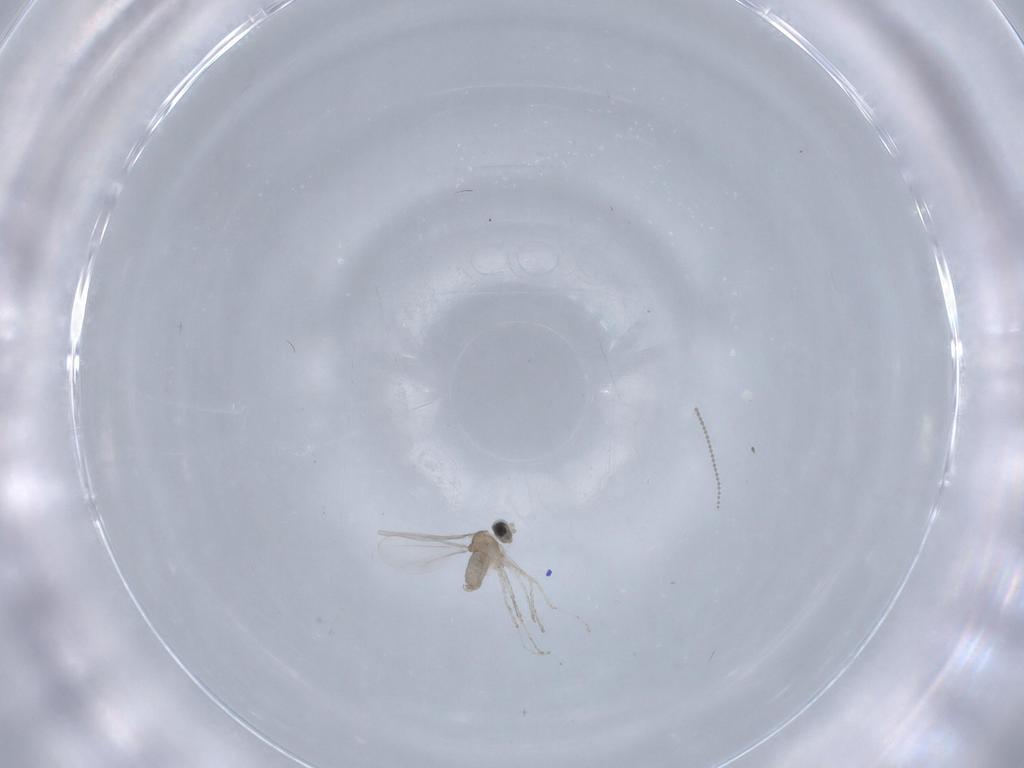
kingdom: Animalia
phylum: Arthropoda
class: Insecta
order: Diptera
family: Cecidomyiidae
